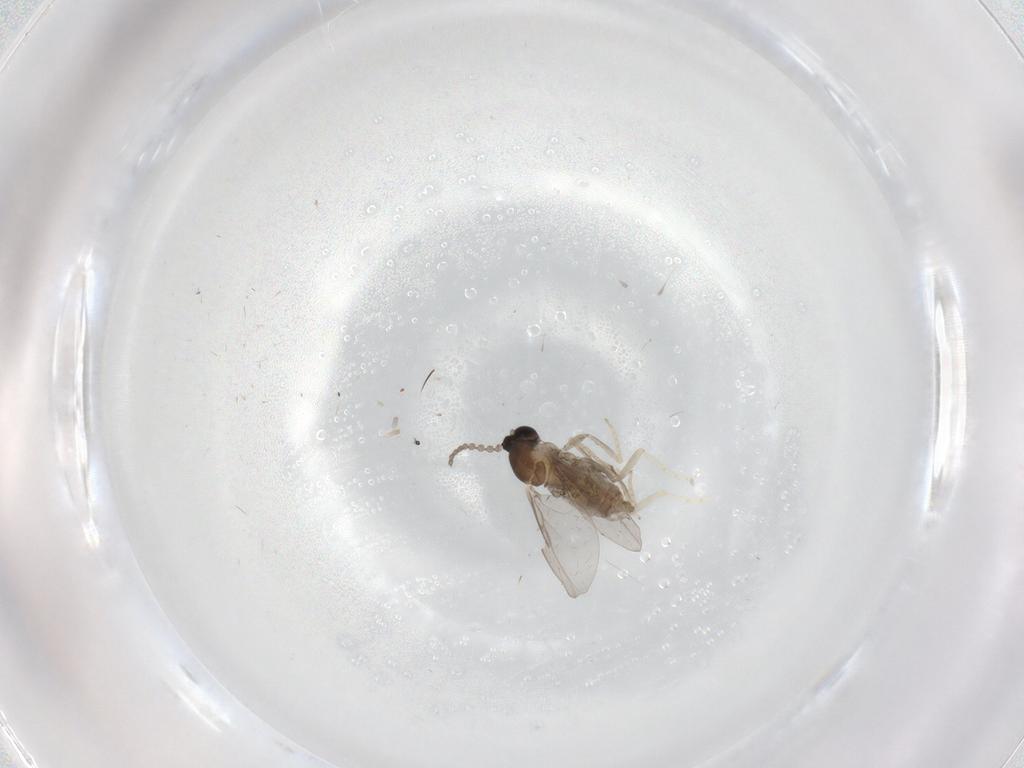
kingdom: Animalia
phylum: Arthropoda
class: Insecta
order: Diptera
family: Cecidomyiidae
